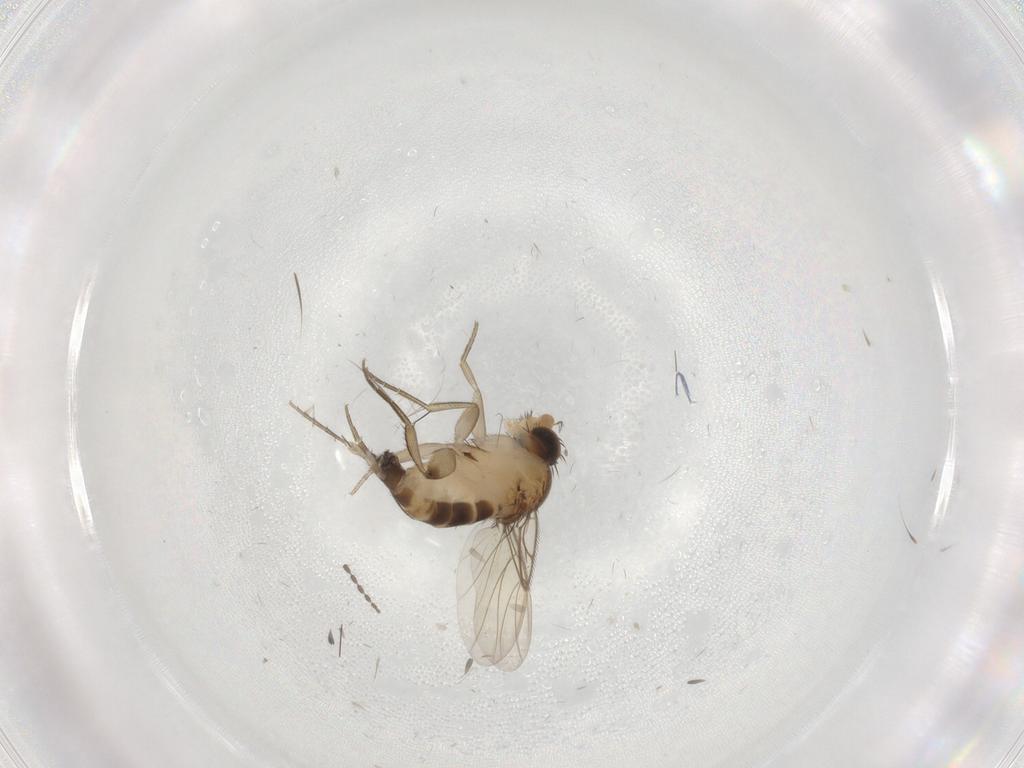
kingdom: Animalia
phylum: Arthropoda
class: Insecta
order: Diptera
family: Phoridae
